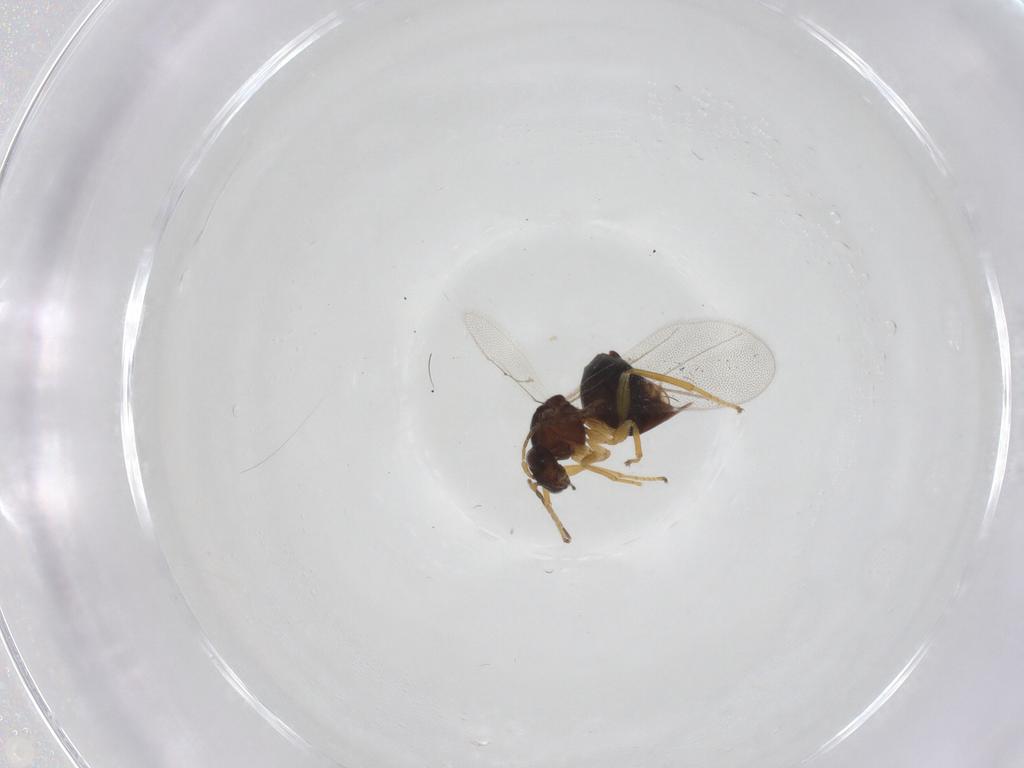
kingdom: Animalia
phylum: Arthropoda
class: Insecta
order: Hymenoptera
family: Cynipidae
